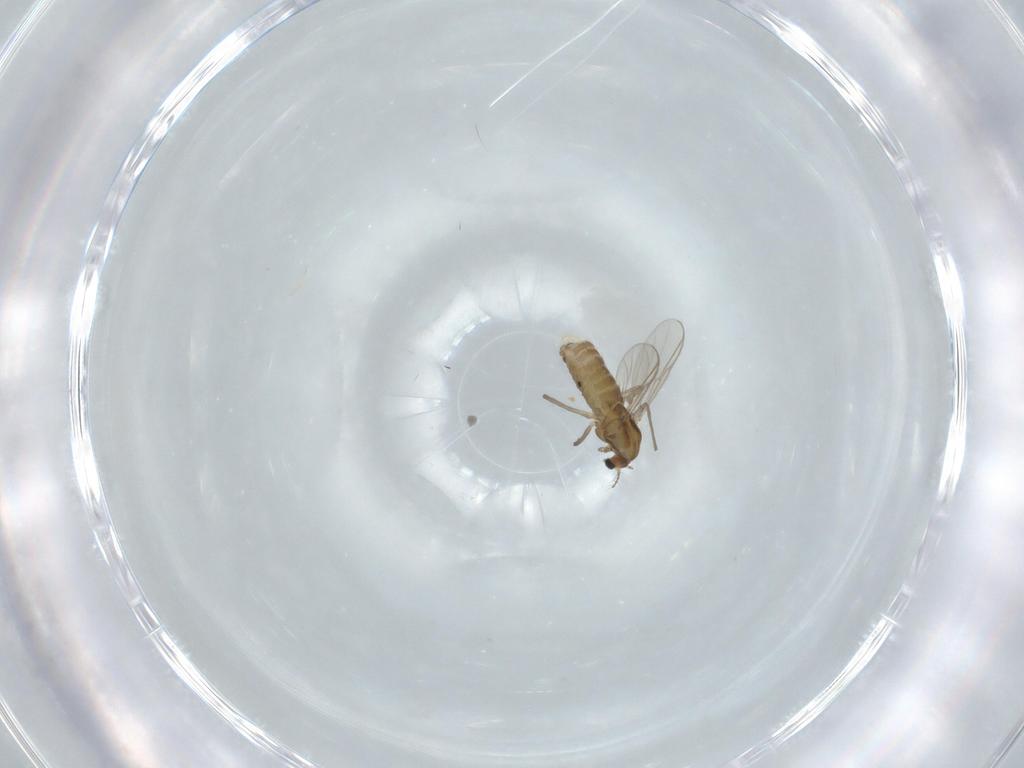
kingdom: Animalia
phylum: Arthropoda
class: Insecta
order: Diptera
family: Chironomidae
